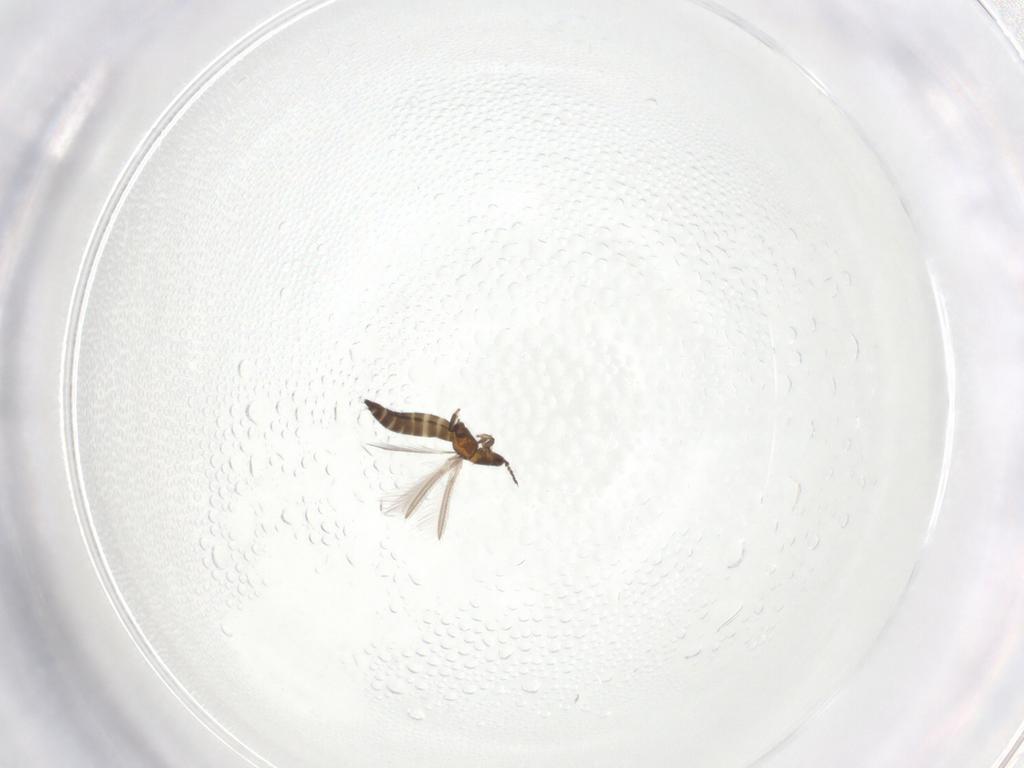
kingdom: Animalia
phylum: Arthropoda
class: Insecta
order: Thysanoptera
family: Thripidae
